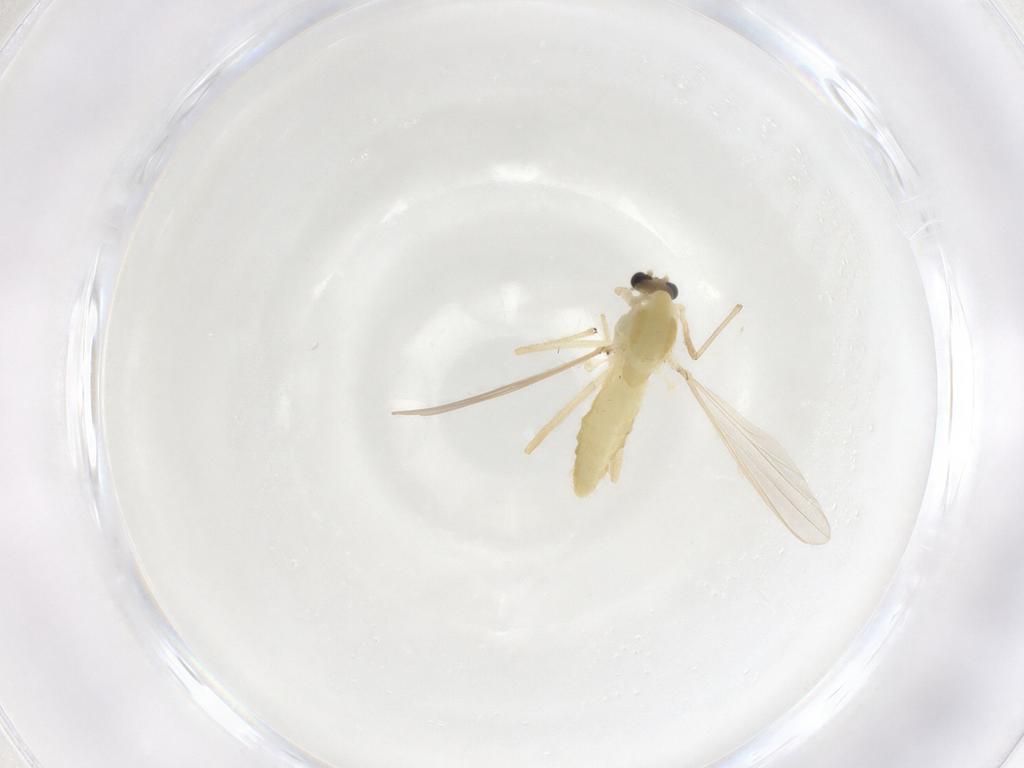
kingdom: Animalia
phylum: Arthropoda
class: Insecta
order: Diptera
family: Chironomidae
